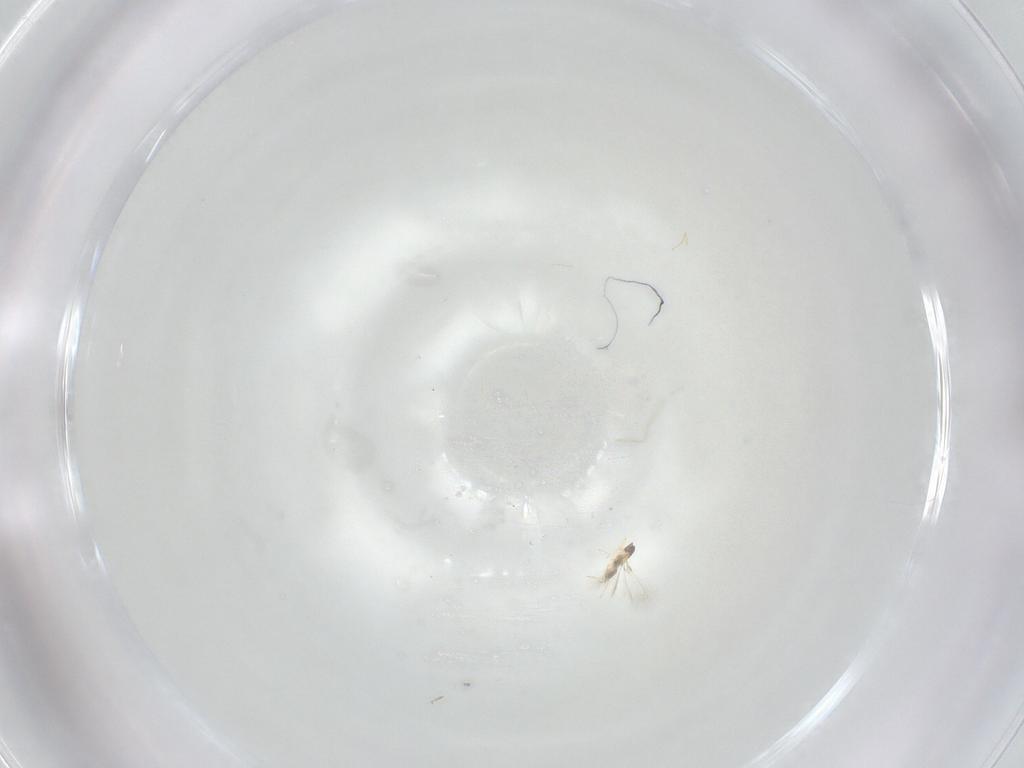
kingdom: Animalia
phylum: Arthropoda
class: Insecta
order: Hymenoptera
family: Mymaridae
